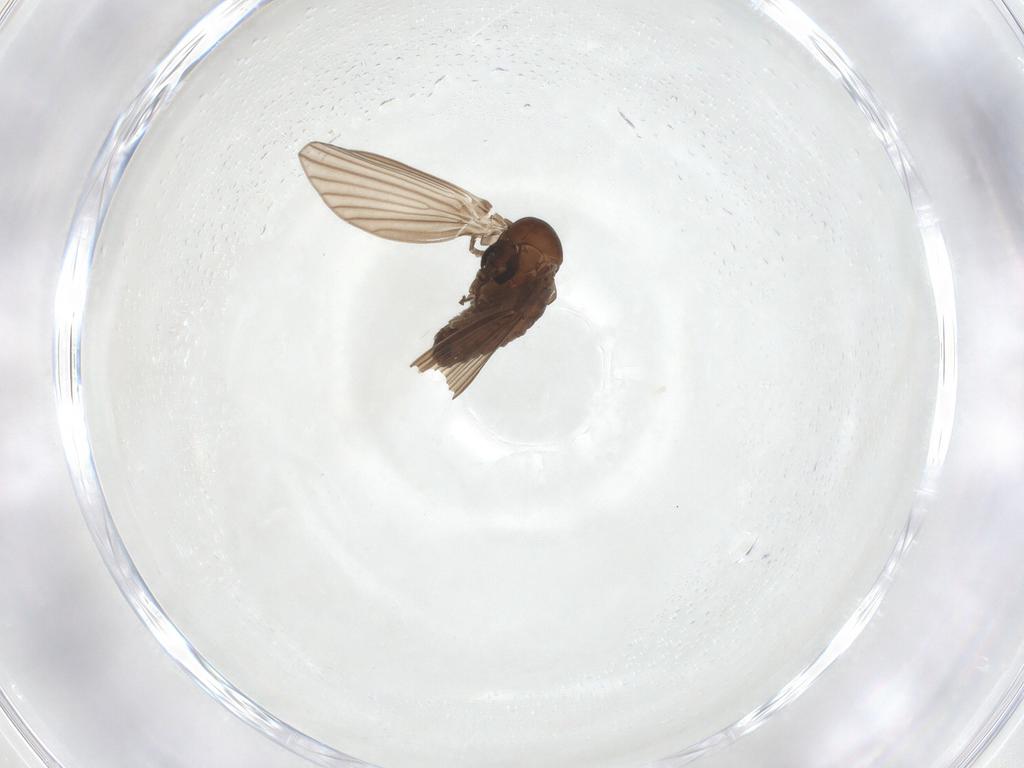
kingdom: Animalia
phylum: Arthropoda
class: Insecta
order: Diptera
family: Psychodidae
